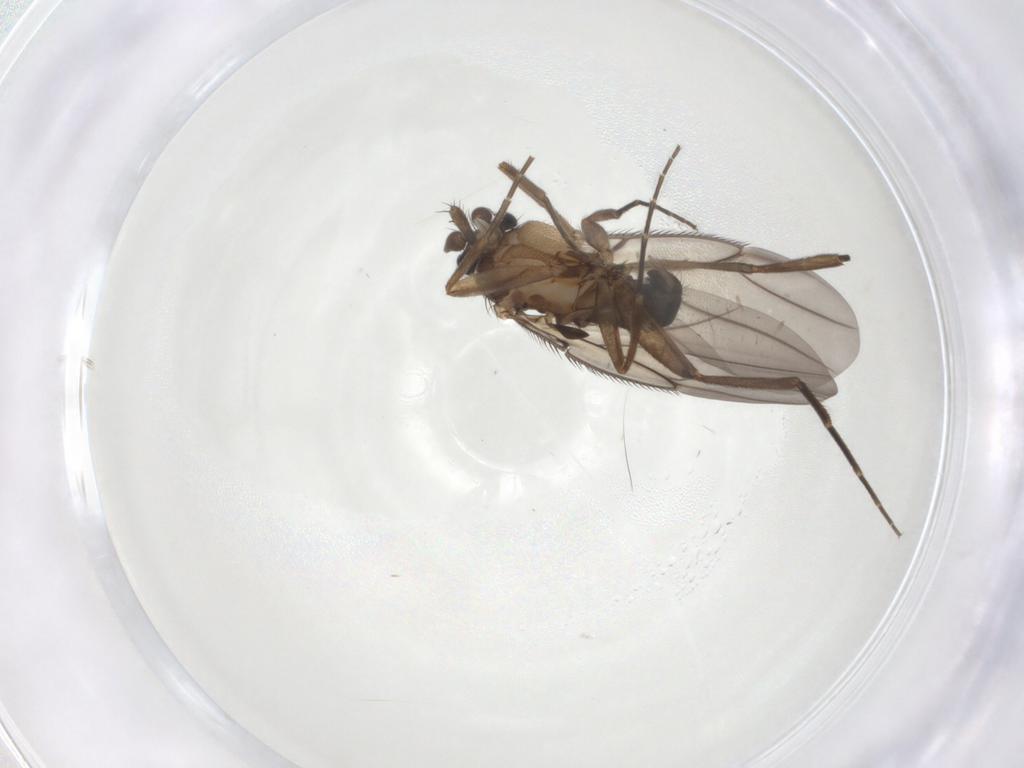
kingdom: Animalia
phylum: Arthropoda
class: Insecta
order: Diptera
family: Phoridae
